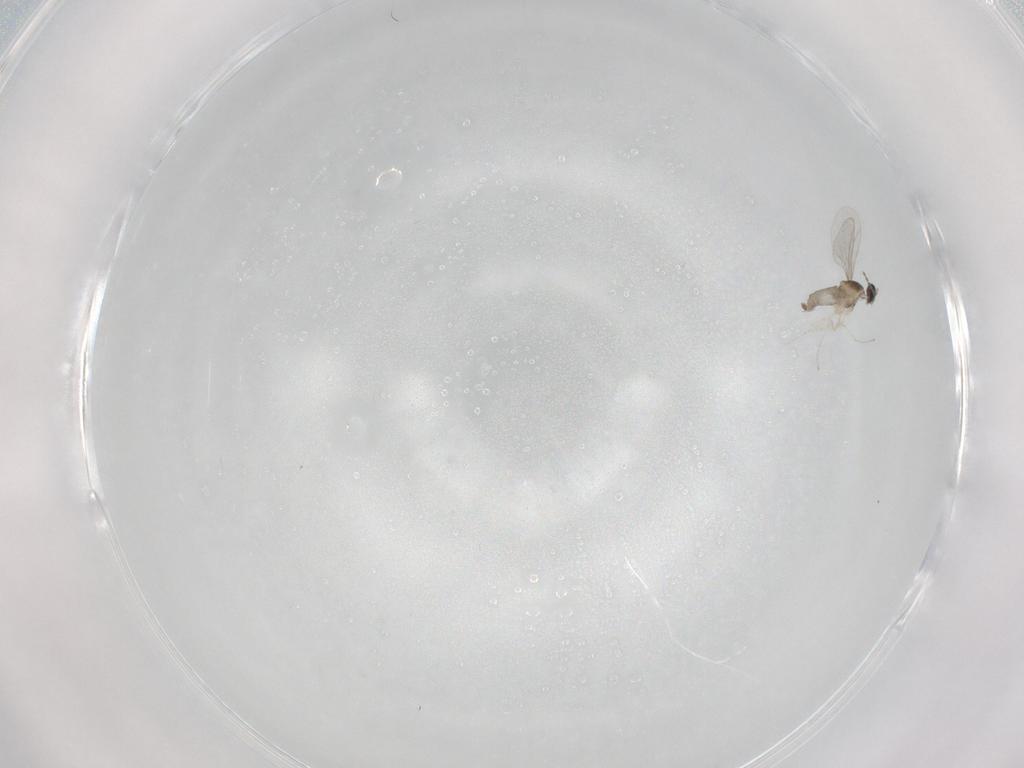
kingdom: Animalia
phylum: Arthropoda
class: Insecta
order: Diptera
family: Cecidomyiidae
